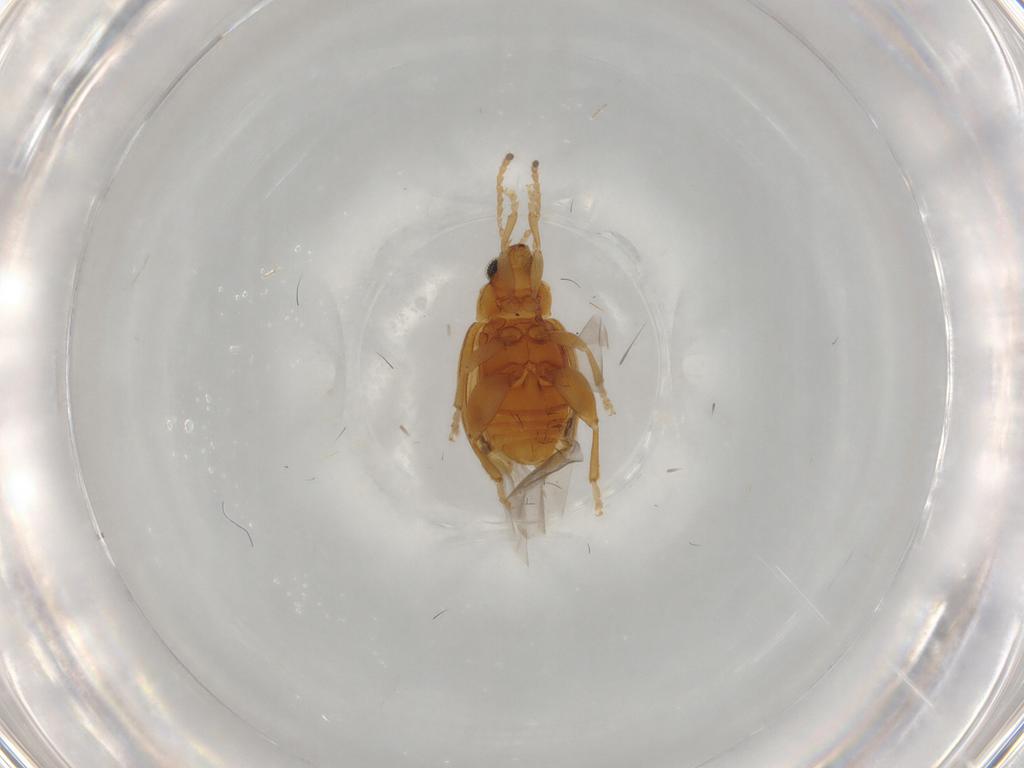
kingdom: Animalia
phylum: Arthropoda
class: Insecta
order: Coleoptera
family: Chrysomelidae
